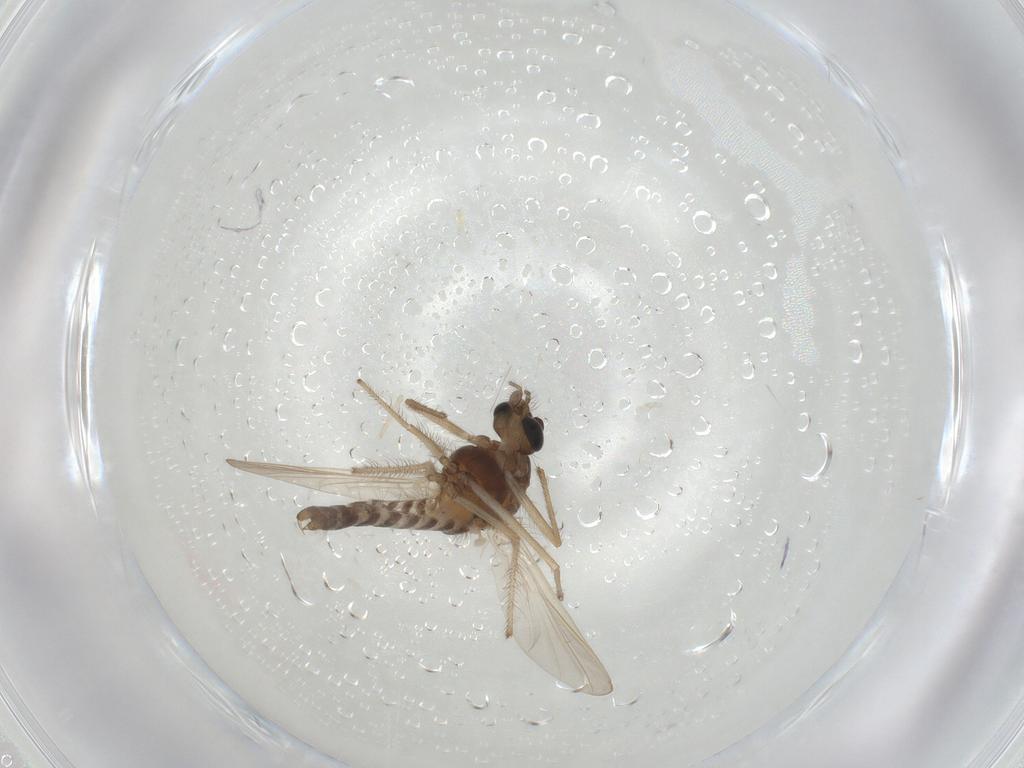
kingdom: Animalia
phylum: Arthropoda
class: Insecta
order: Diptera
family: Chironomidae
